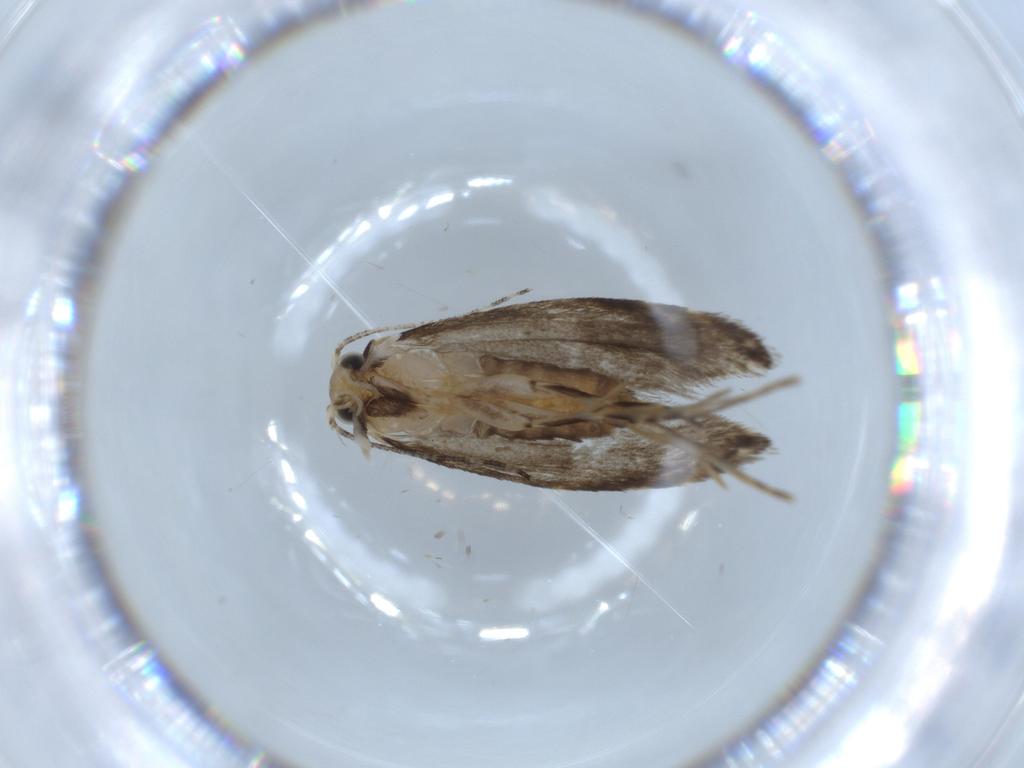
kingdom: Animalia
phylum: Arthropoda
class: Insecta
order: Lepidoptera
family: Tineidae
